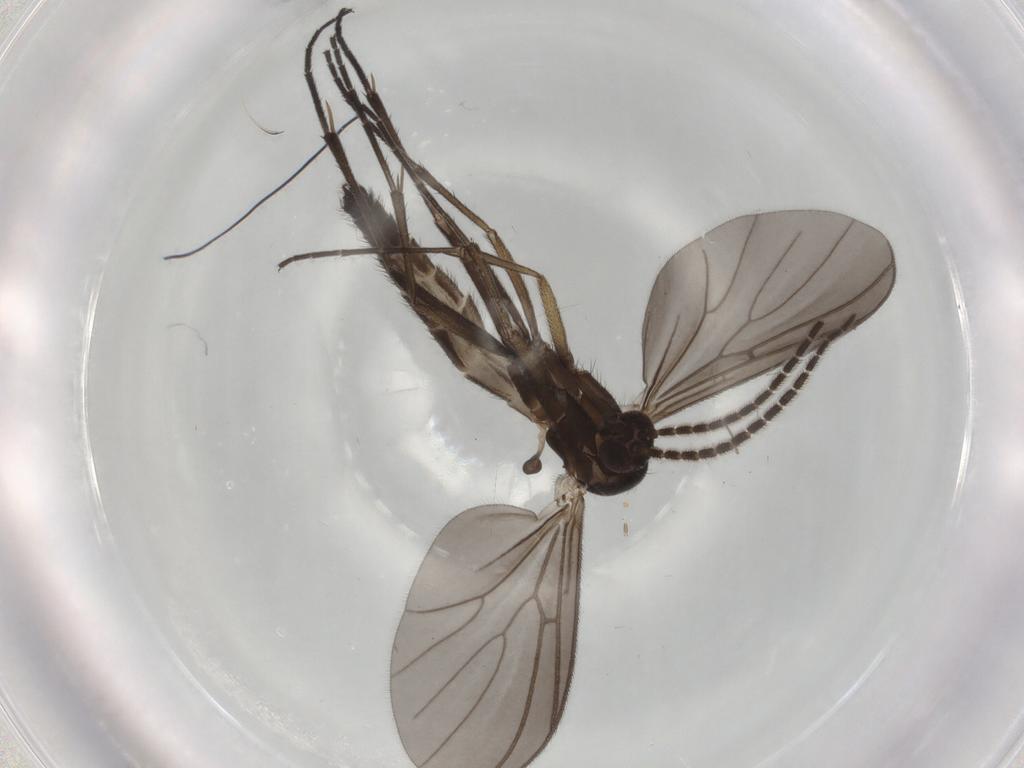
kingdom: Animalia
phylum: Arthropoda
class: Insecta
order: Diptera
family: Mycetophilidae
